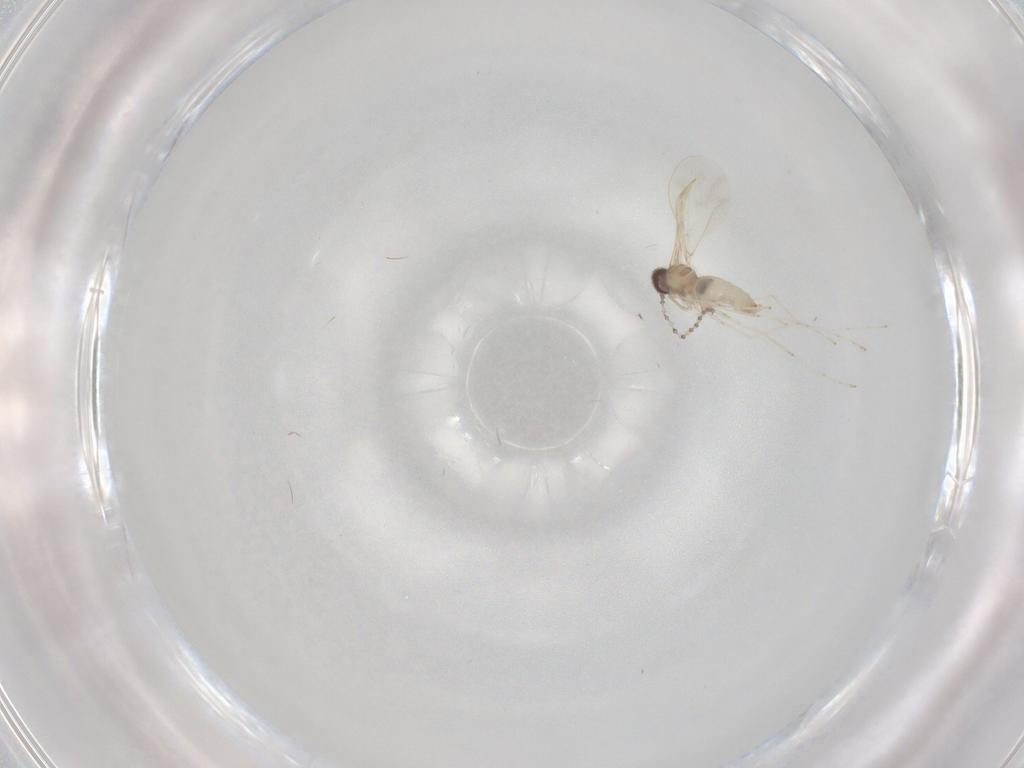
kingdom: Animalia
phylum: Arthropoda
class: Insecta
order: Diptera
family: Cecidomyiidae
